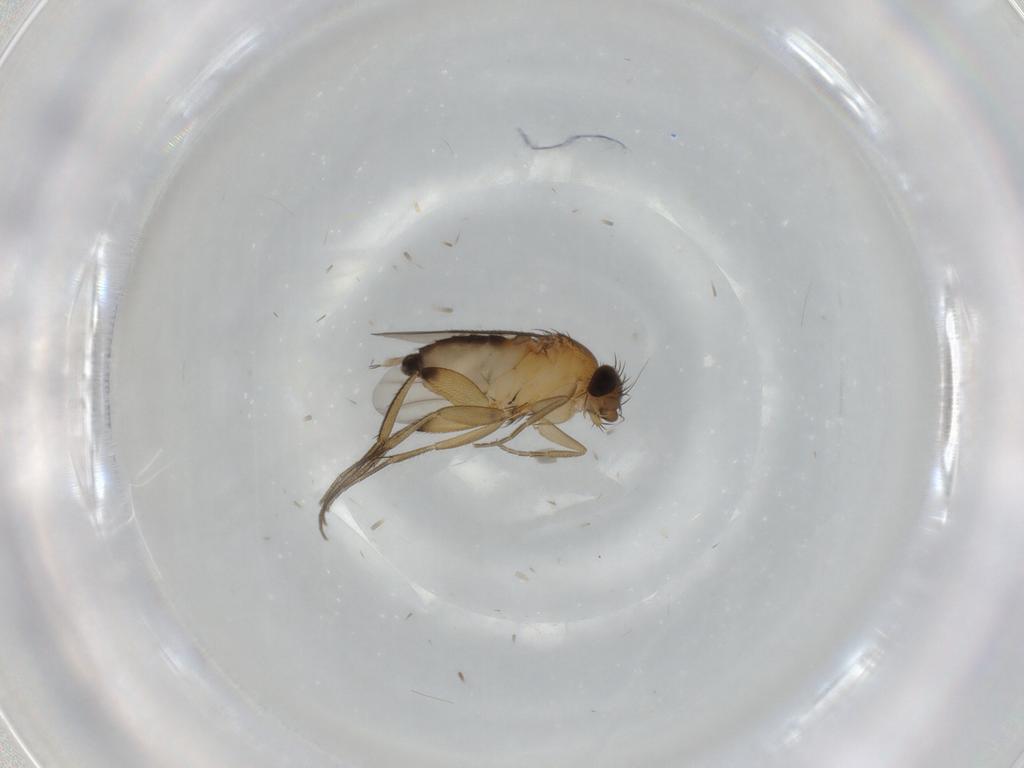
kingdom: Animalia
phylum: Arthropoda
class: Insecta
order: Diptera
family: Phoridae
